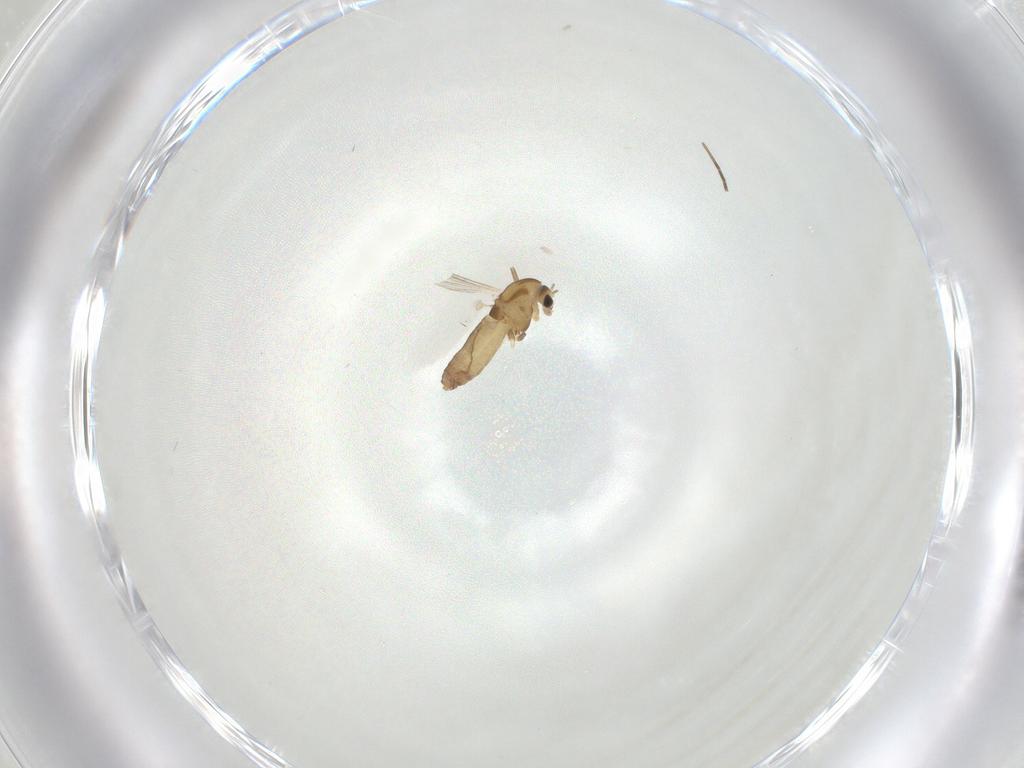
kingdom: Animalia
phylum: Arthropoda
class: Insecta
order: Diptera
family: Chironomidae
